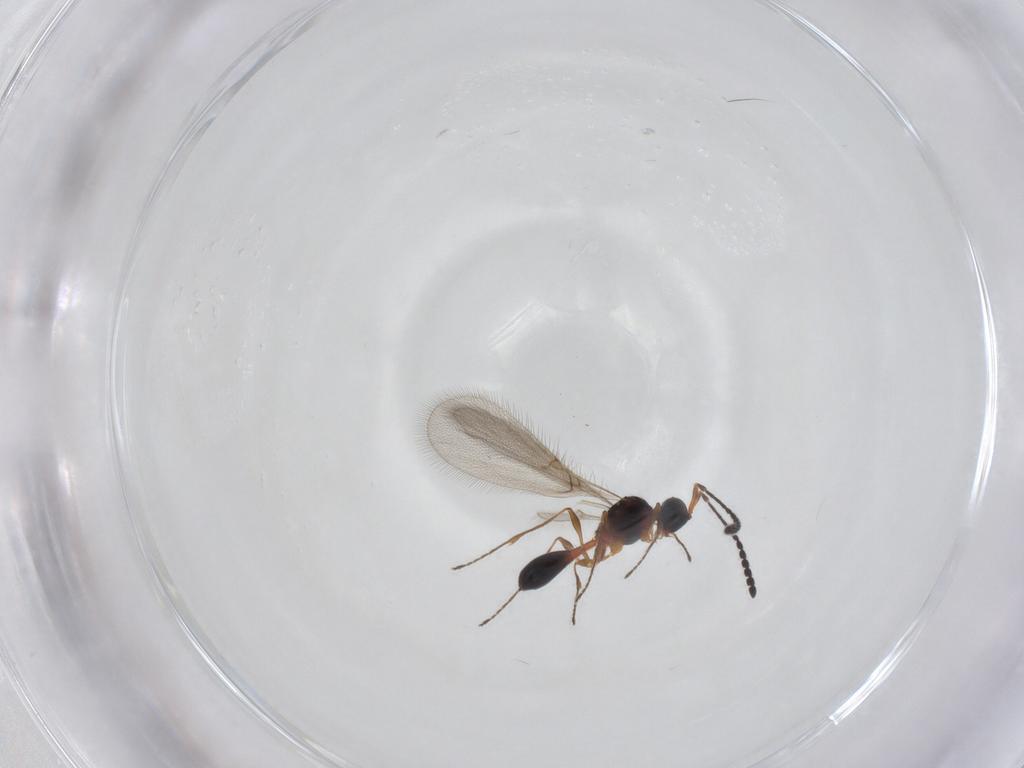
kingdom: Animalia
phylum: Arthropoda
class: Insecta
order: Hymenoptera
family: Diapriidae
